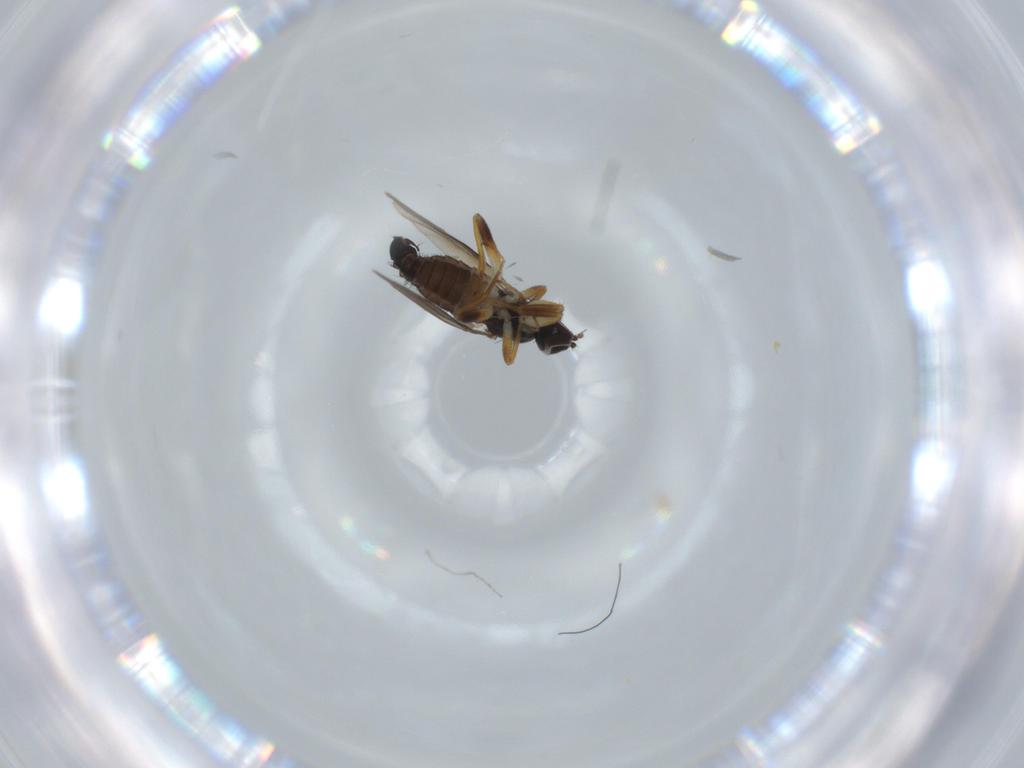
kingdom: Animalia
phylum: Arthropoda
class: Insecta
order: Diptera
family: Hybotidae
